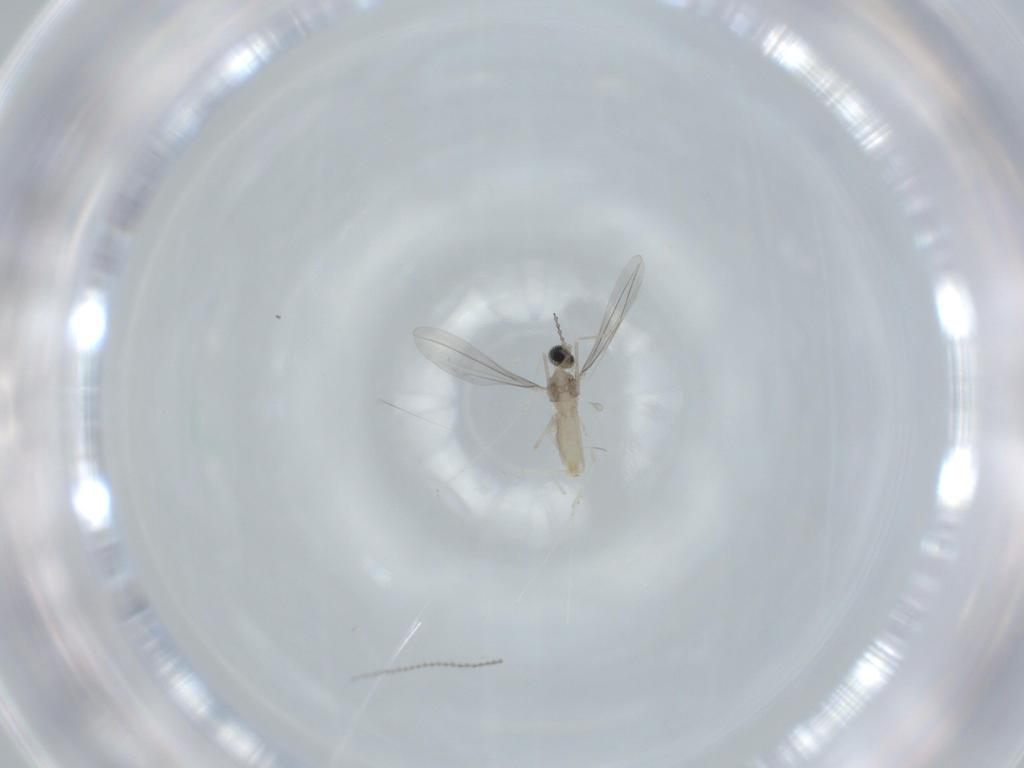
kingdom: Animalia
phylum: Arthropoda
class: Insecta
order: Diptera
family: Cecidomyiidae
